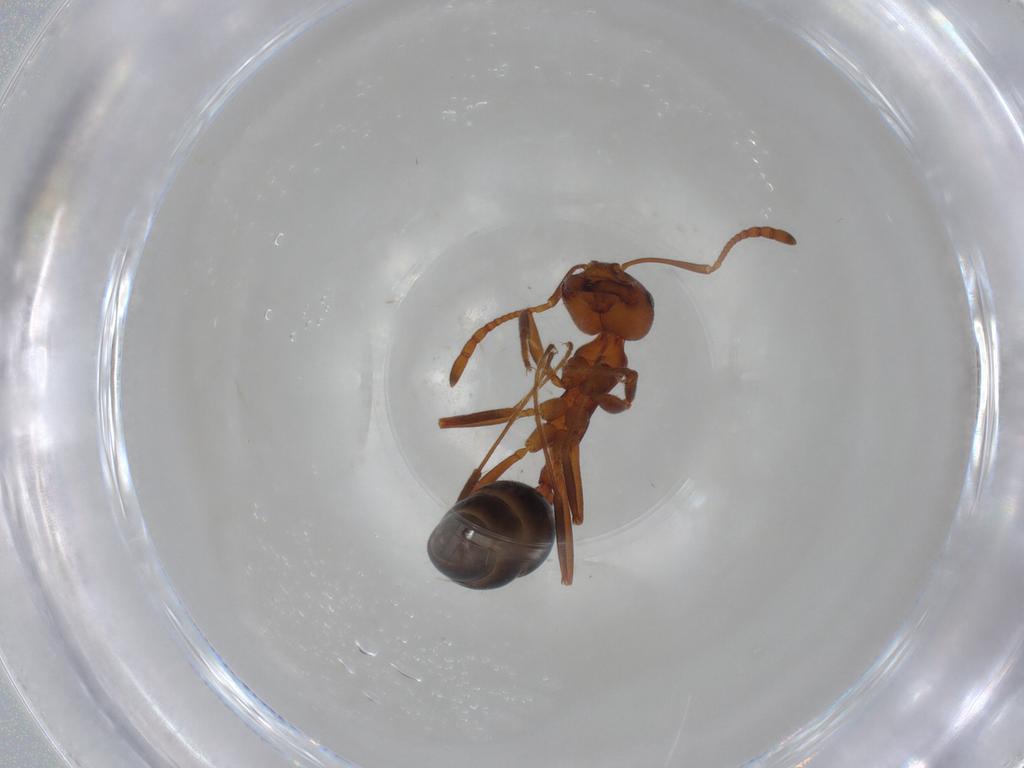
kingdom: Animalia
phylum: Arthropoda
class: Insecta
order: Hymenoptera
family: Formicidae
